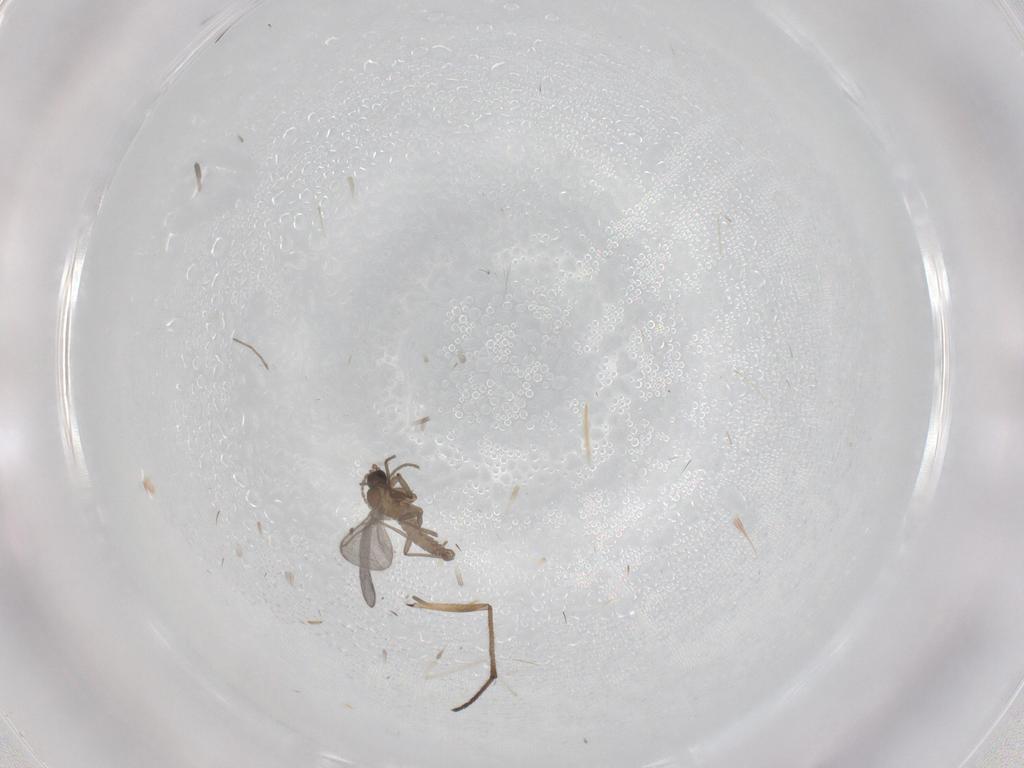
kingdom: Animalia
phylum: Arthropoda
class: Insecta
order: Diptera
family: Sciaridae
